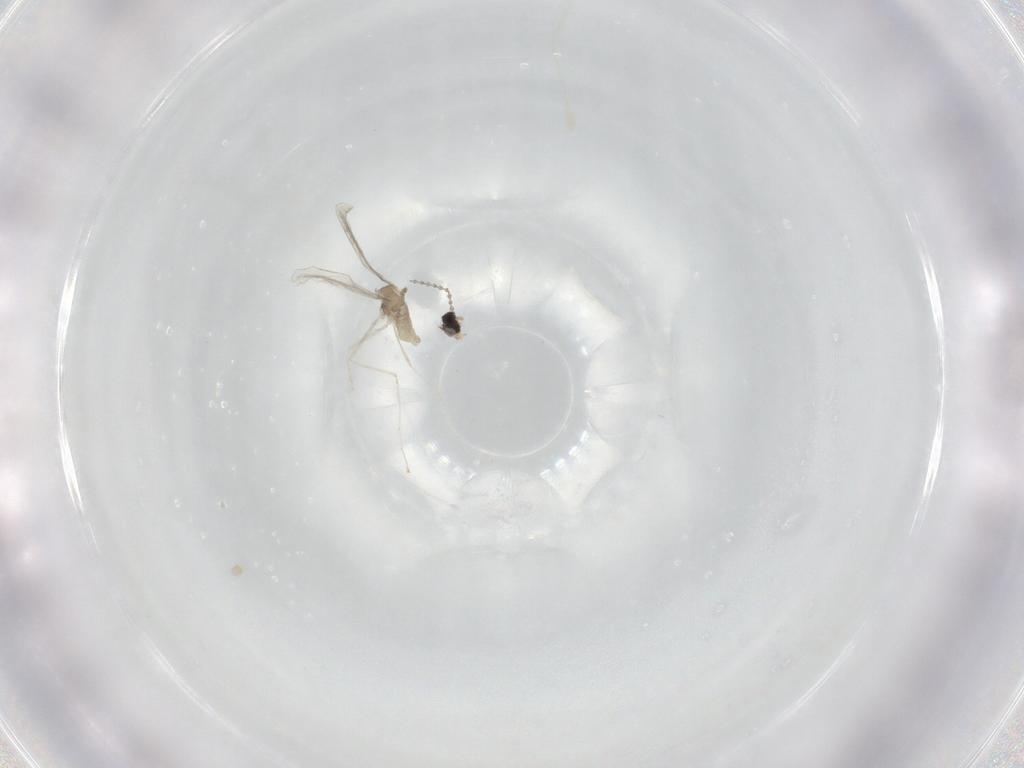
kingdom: Animalia
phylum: Arthropoda
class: Insecta
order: Diptera
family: Cecidomyiidae
